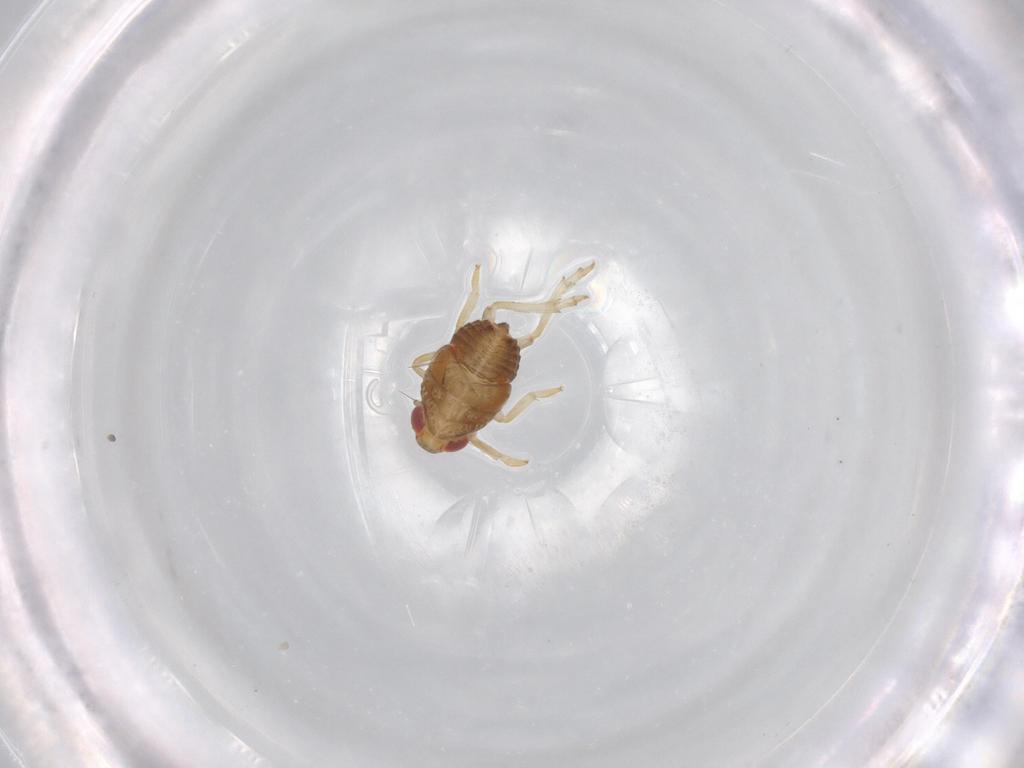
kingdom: Animalia
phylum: Arthropoda
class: Insecta
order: Hemiptera
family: Issidae
